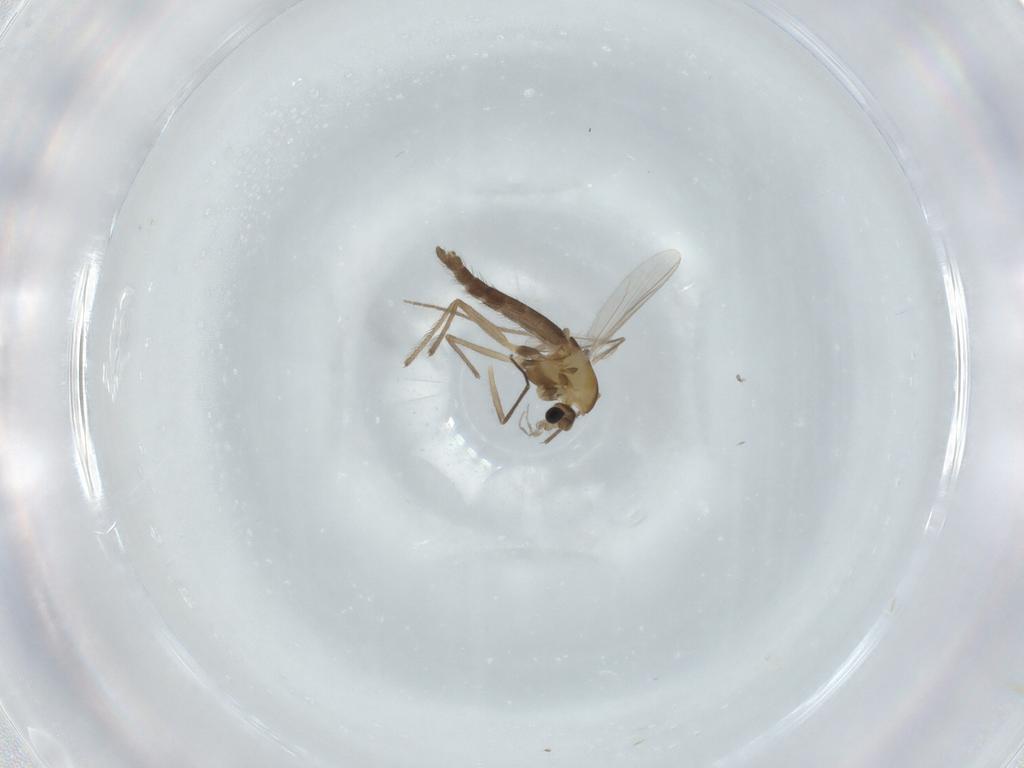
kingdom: Animalia
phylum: Arthropoda
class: Insecta
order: Diptera
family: Chironomidae
